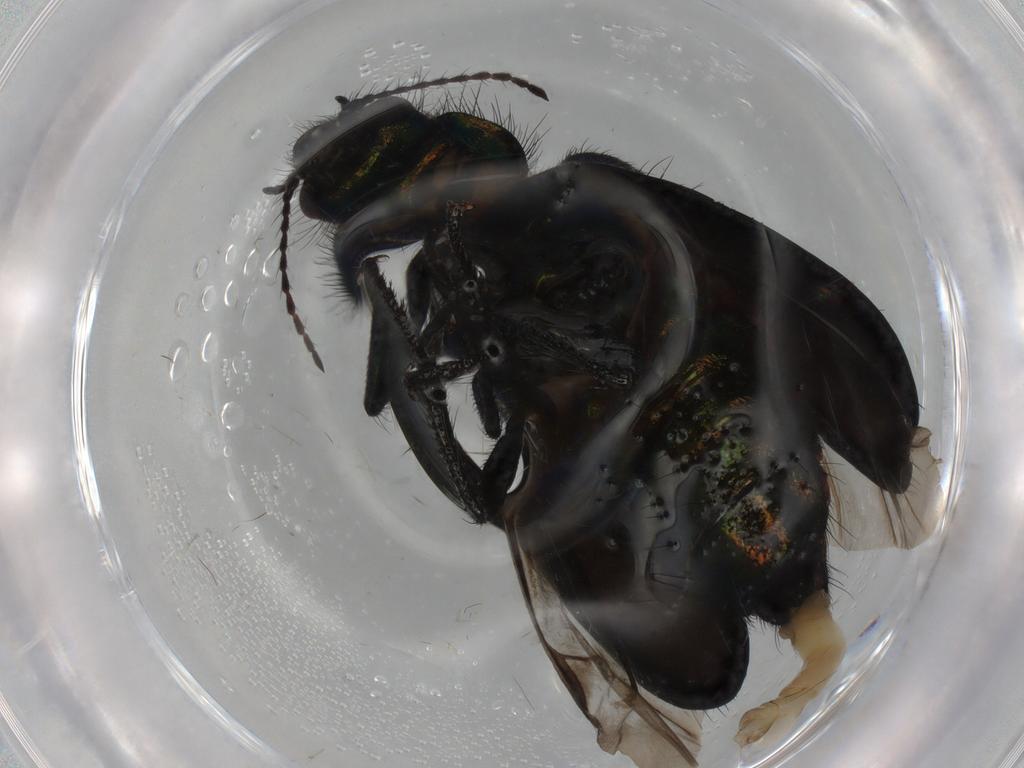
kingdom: Animalia
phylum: Arthropoda
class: Insecta
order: Coleoptera
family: Melyridae
